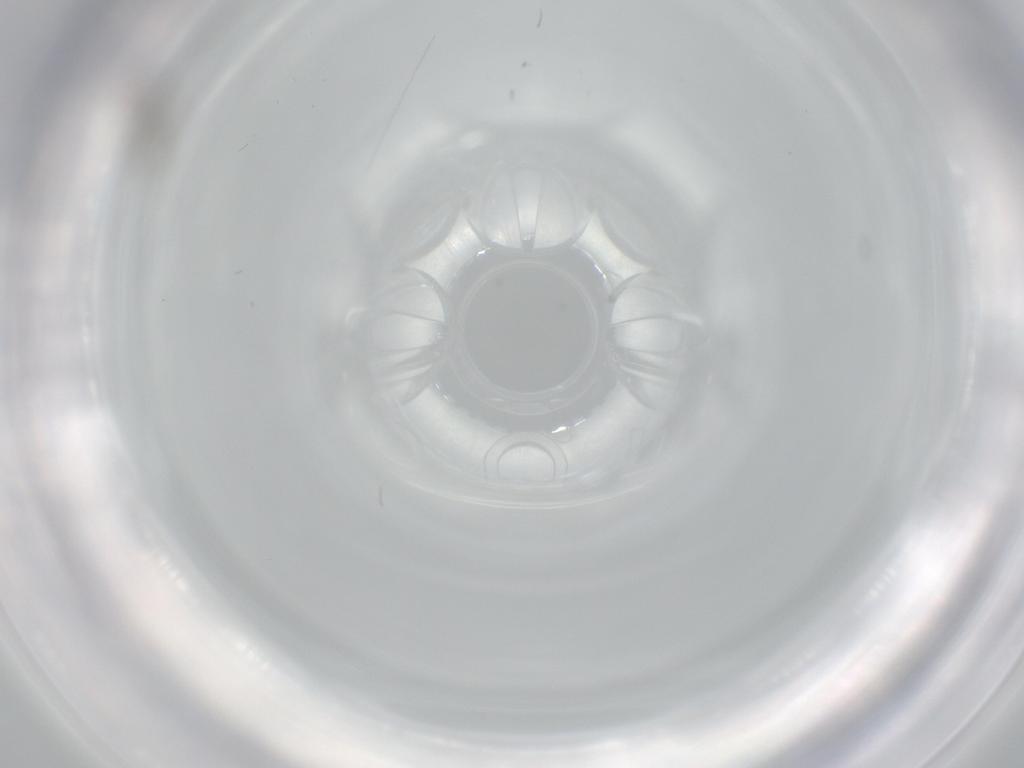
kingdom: Animalia
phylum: Arthropoda
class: Insecta
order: Diptera
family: Cecidomyiidae
